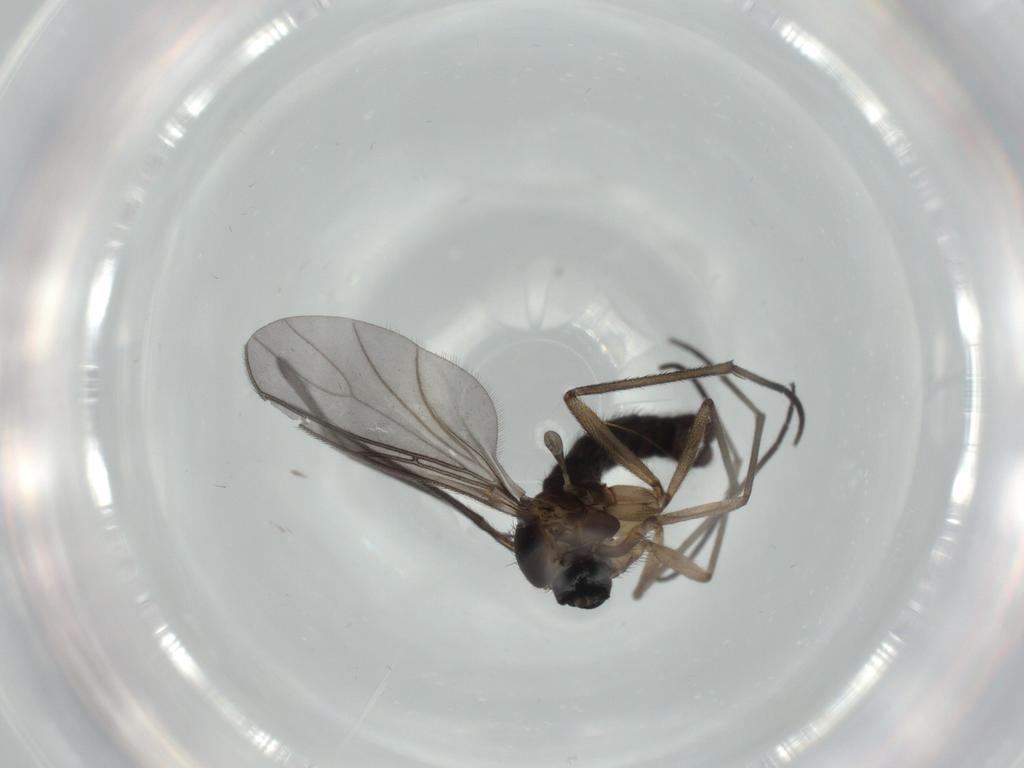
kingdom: Animalia
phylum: Arthropoda
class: Insecta
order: Diptera
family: Sciaridae
